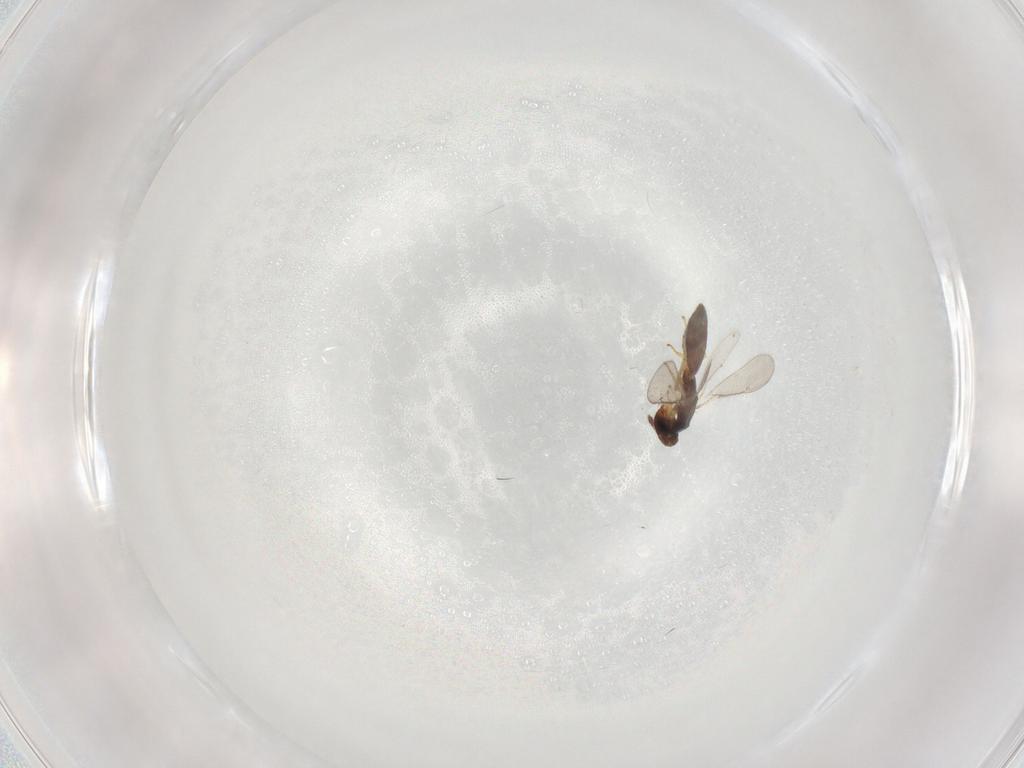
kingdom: Animalia
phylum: Arthropoda
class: Insecta
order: Hymenoptera
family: Eulophidae
